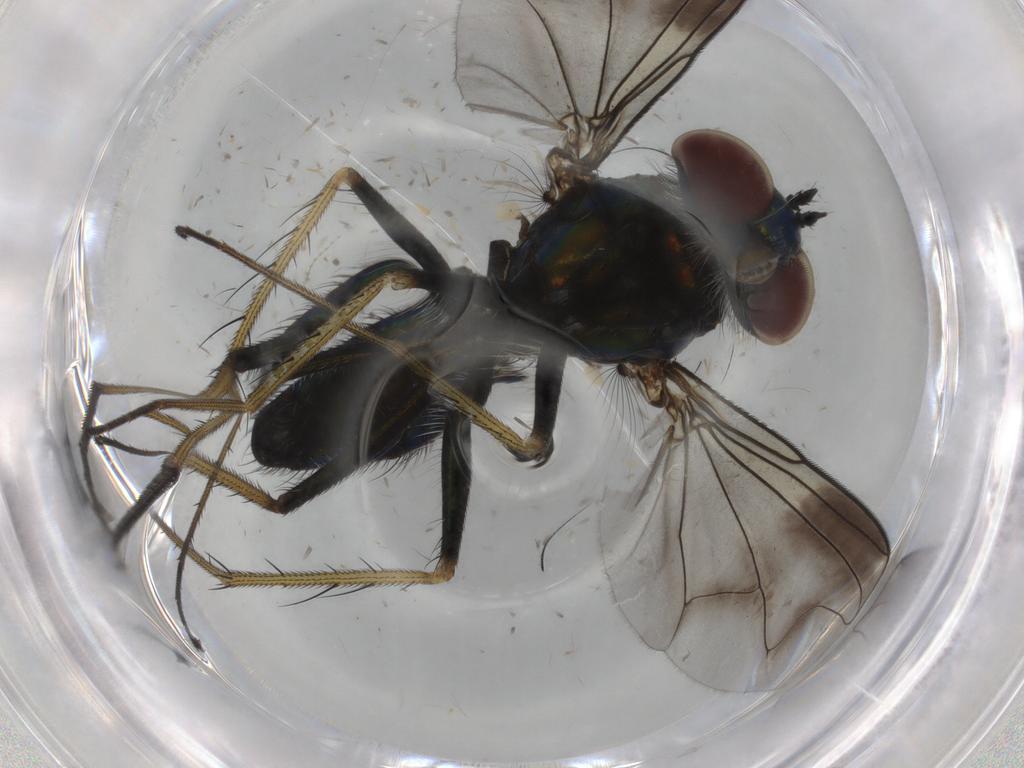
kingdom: Animalia
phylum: Arthropoda
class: Insecta
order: Diptera
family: Dolichopodidae
